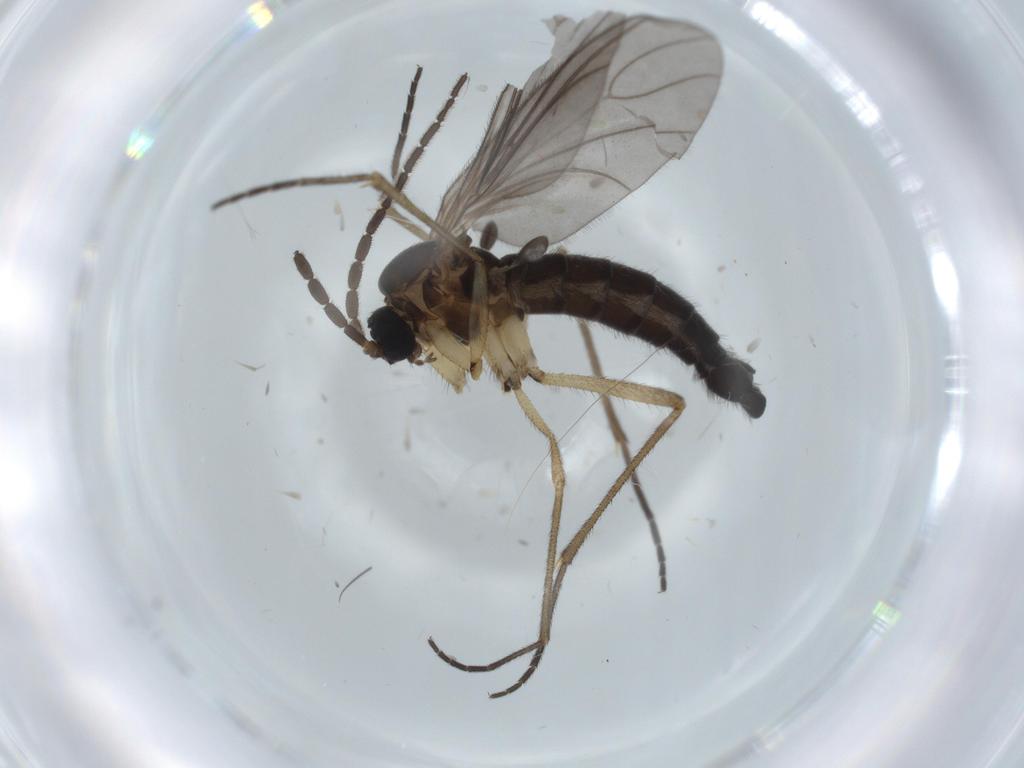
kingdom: Animalia
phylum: Arthropoda
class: Insecta
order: Diptera
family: Sciaridae
